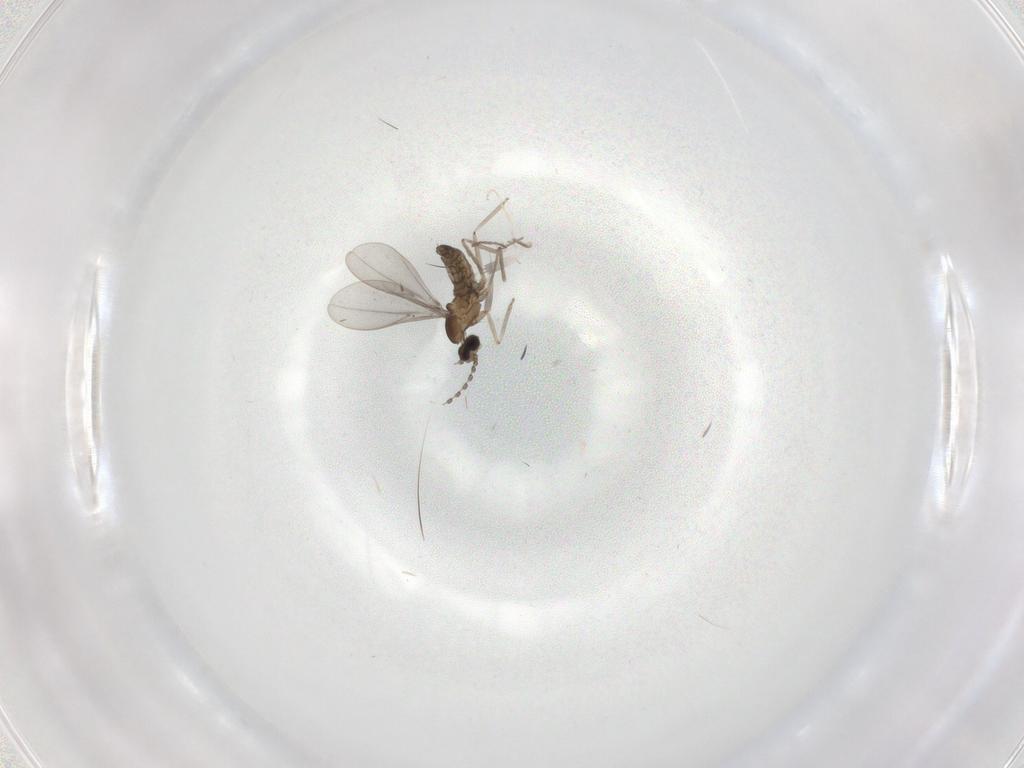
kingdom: Animalia
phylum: Arthropoda
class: Insecta
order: Diptera
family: Cecidomyiidae
